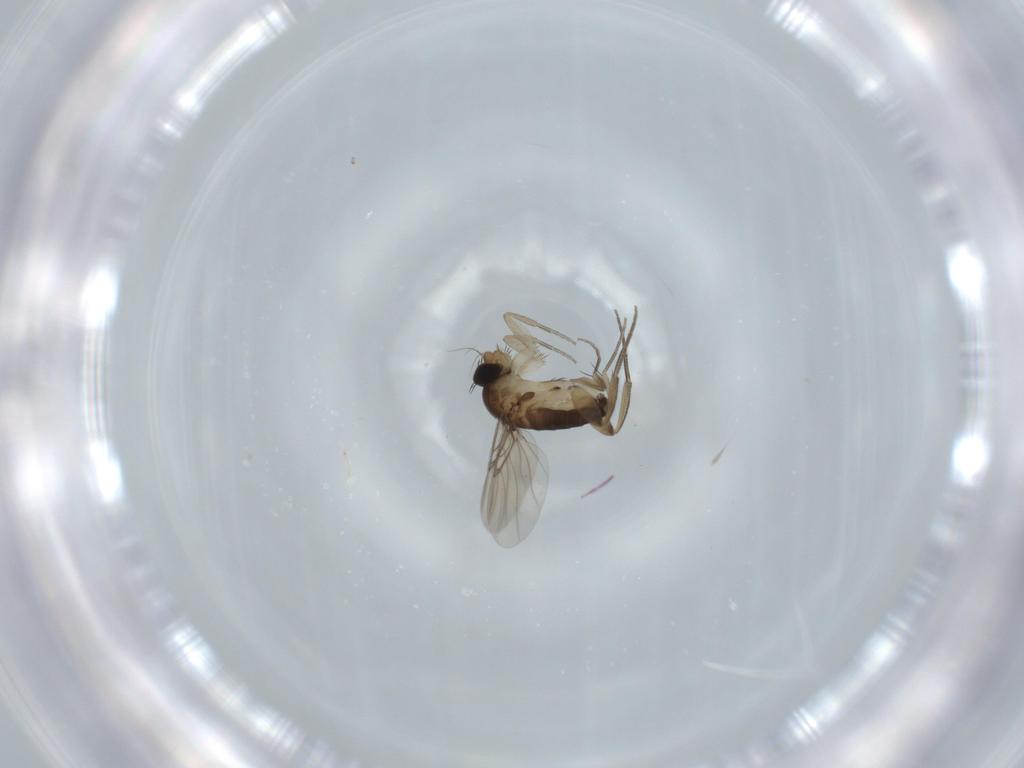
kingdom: Animalia
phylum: Arthropoda
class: Insecta
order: Diptera
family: Phoridae
